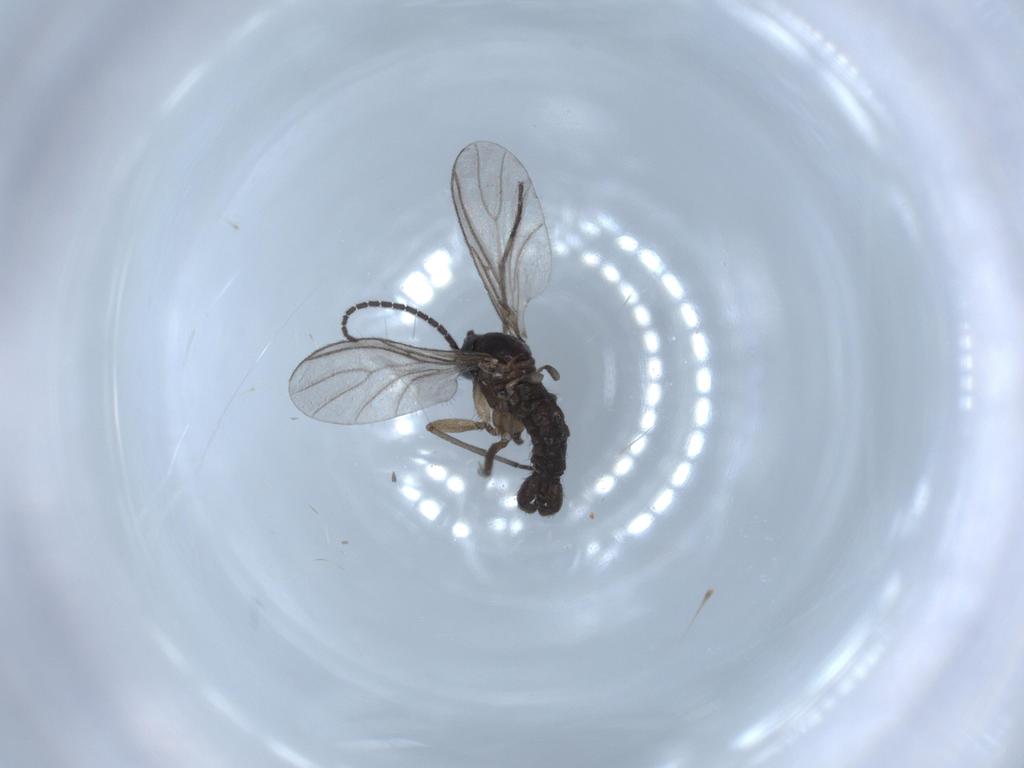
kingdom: Animalia
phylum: Arthropoda
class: Insecta
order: Diptera
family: Sciaridae
